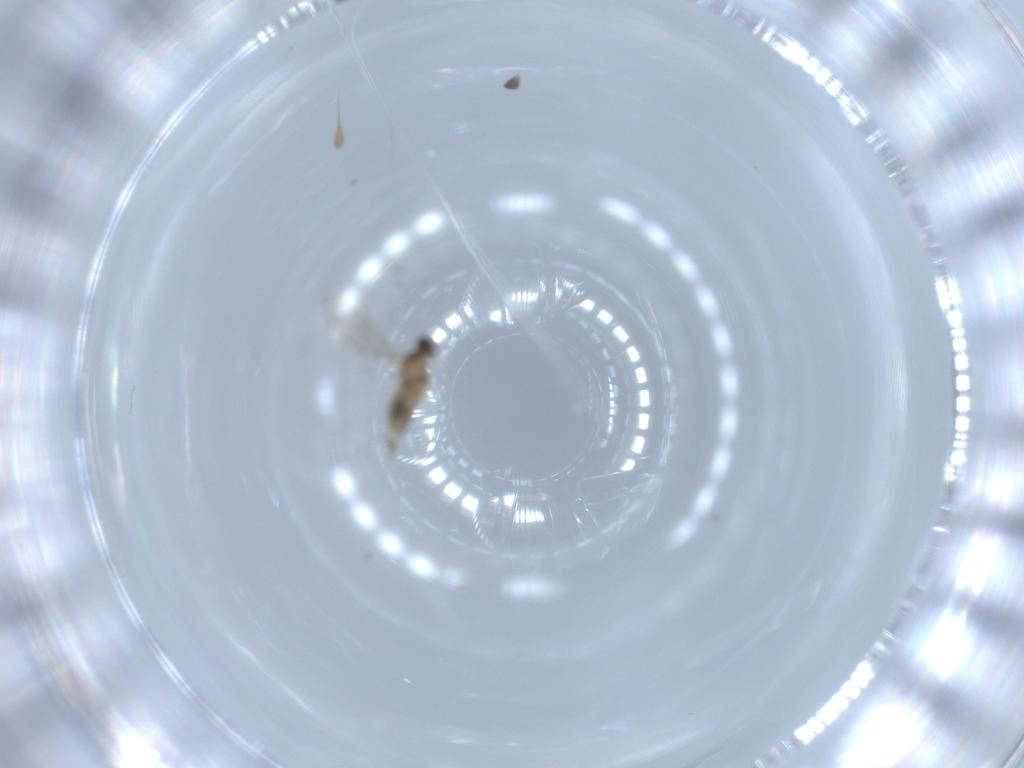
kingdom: Animalia
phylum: Arthropoda
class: Insecta
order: Diptera
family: Cecidomyiidae
